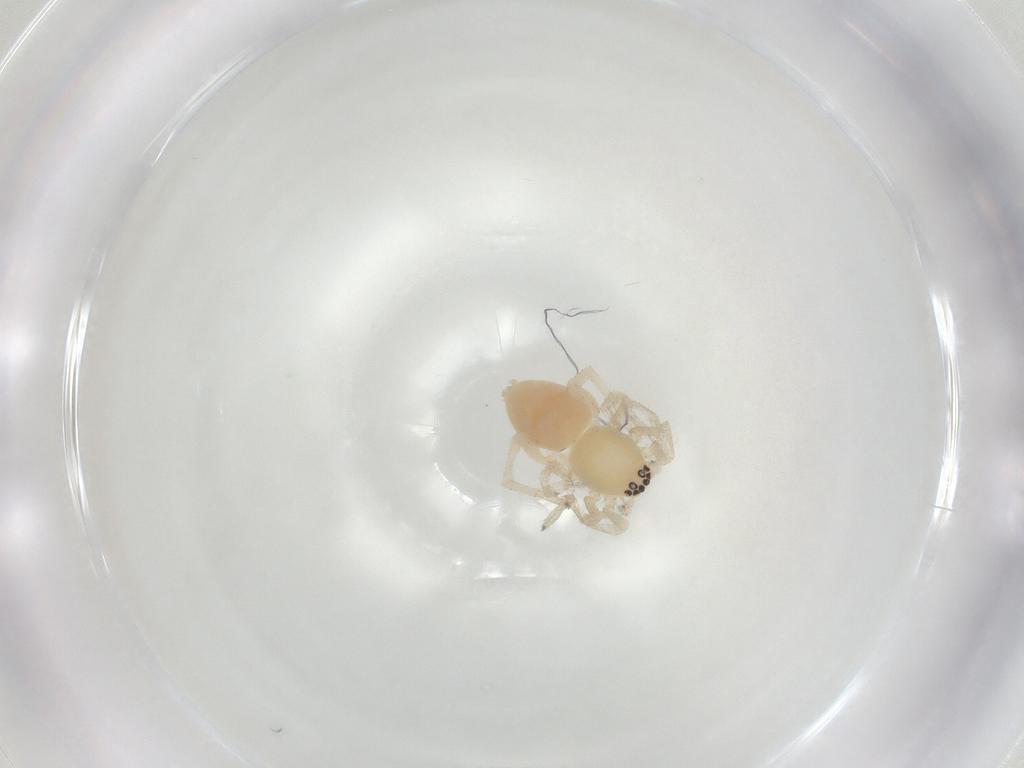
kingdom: Animalia
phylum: Arthropoda
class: Arachnida
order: Araneae
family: Clubionidae
